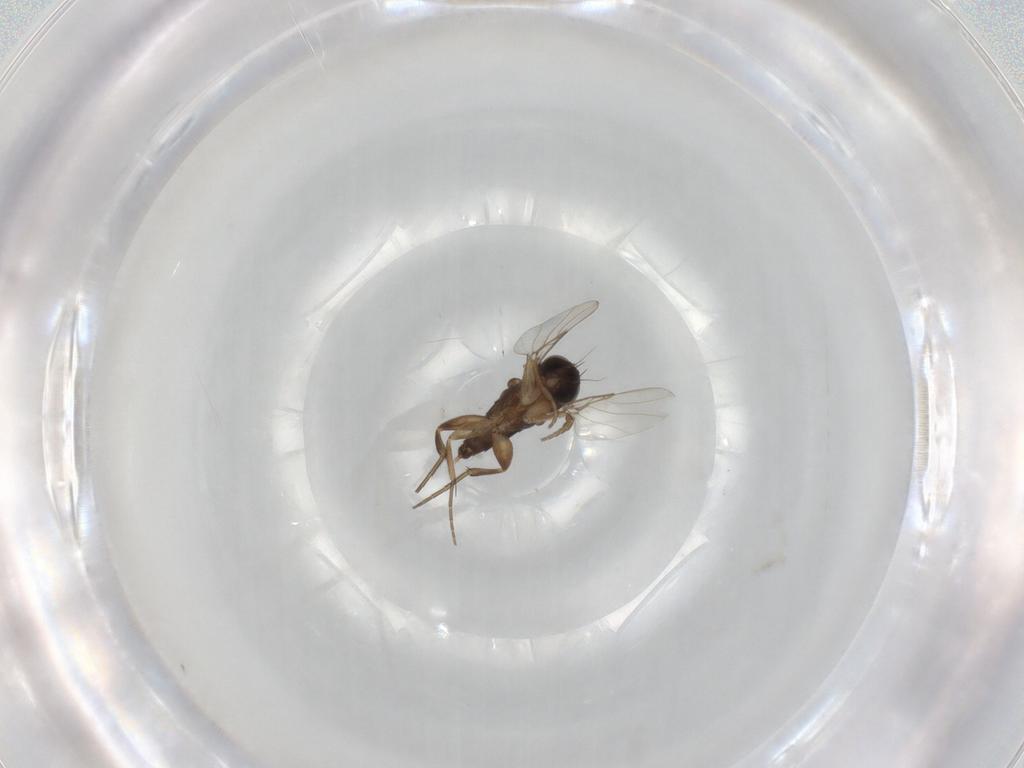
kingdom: Animalia
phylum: Arthropoda
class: Insecta
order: Diptera
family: Phoridae
